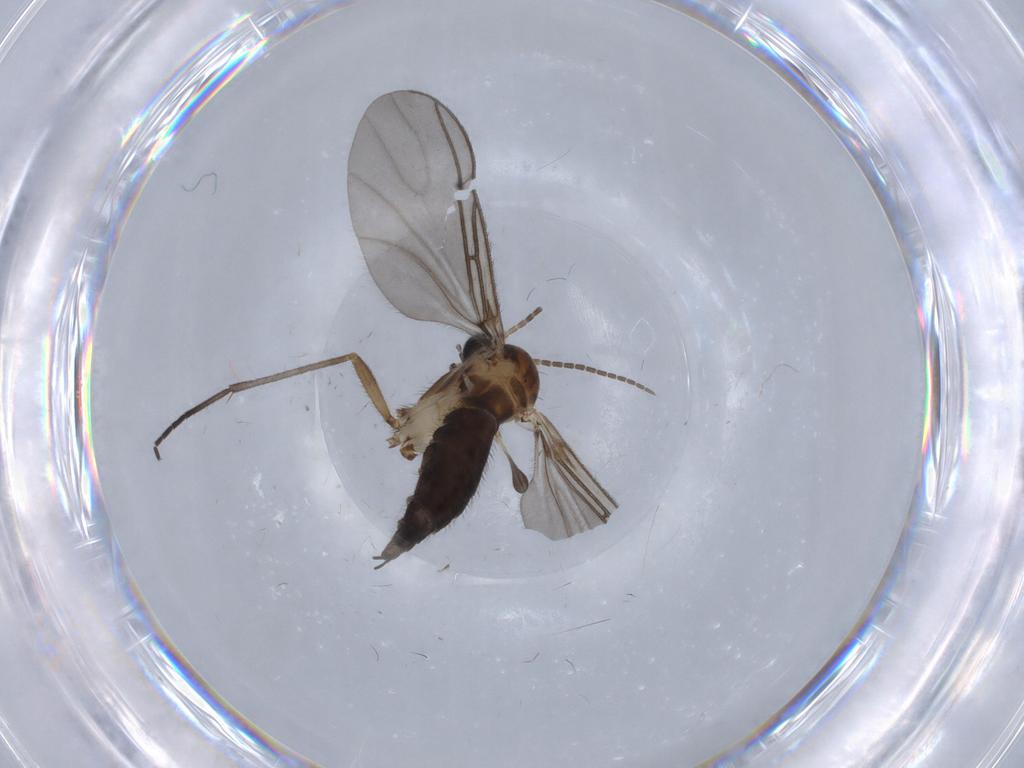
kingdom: Animalia
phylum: Arthropoda
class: Insecta
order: Diptera
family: Sciaridae
